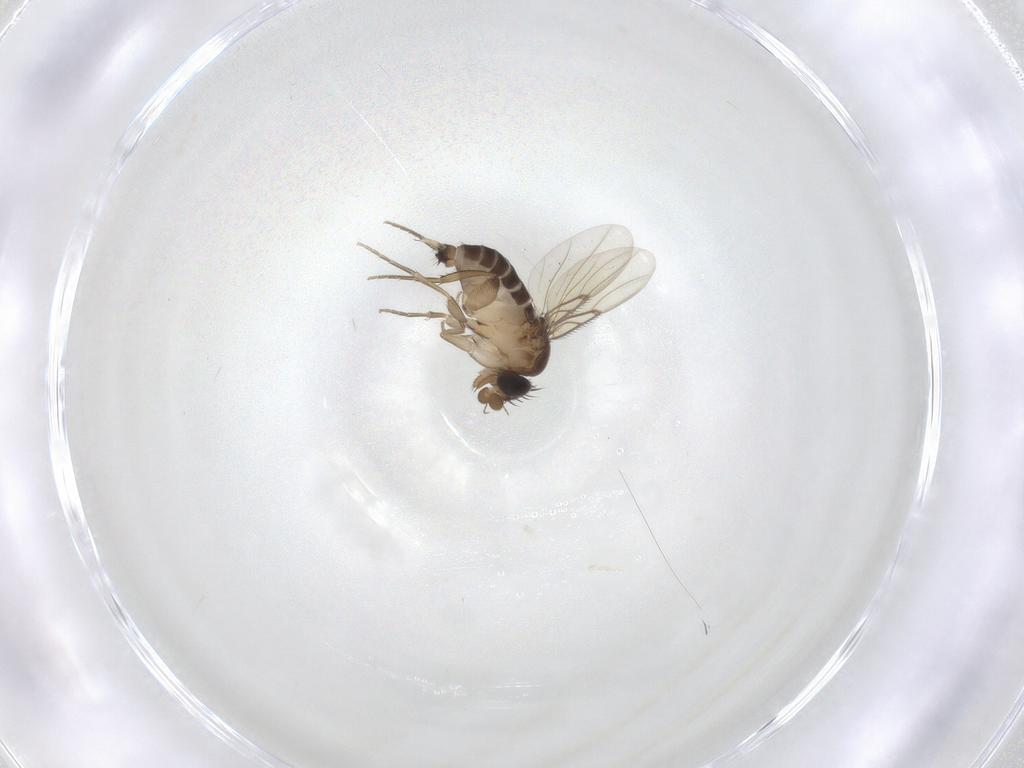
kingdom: Animalia
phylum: Arthropoda
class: Insecta
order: Diptera
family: Phoridae
